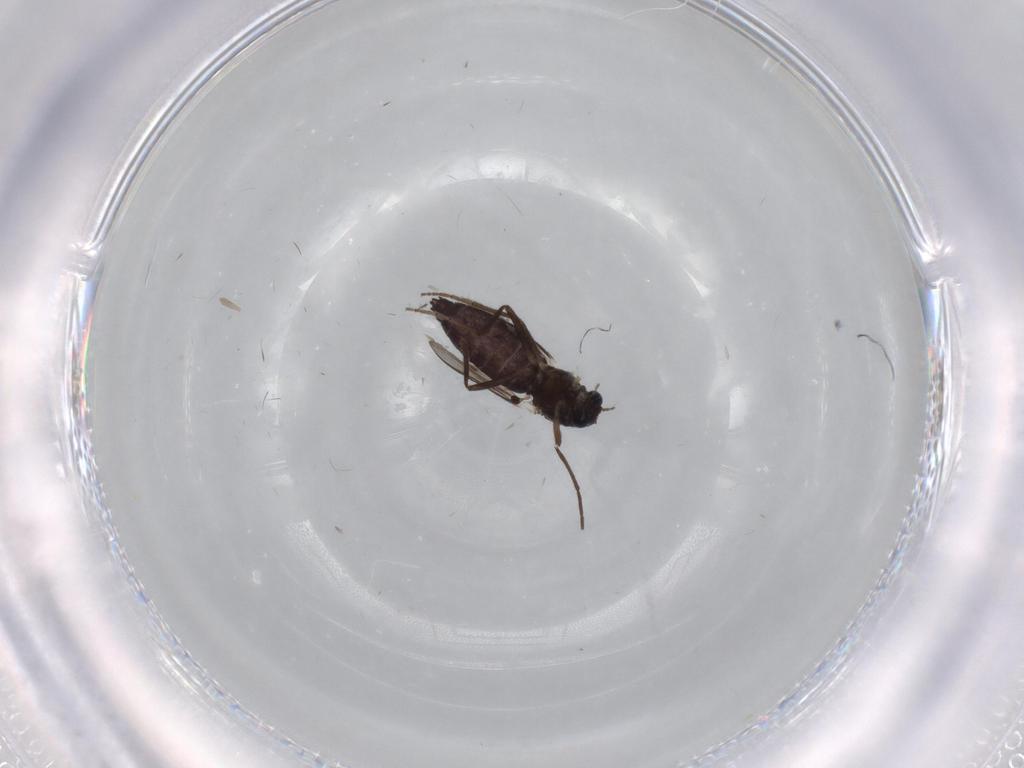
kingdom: Animalia
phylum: Arthropoda
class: Insecta
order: Diptera
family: Chironomidae
